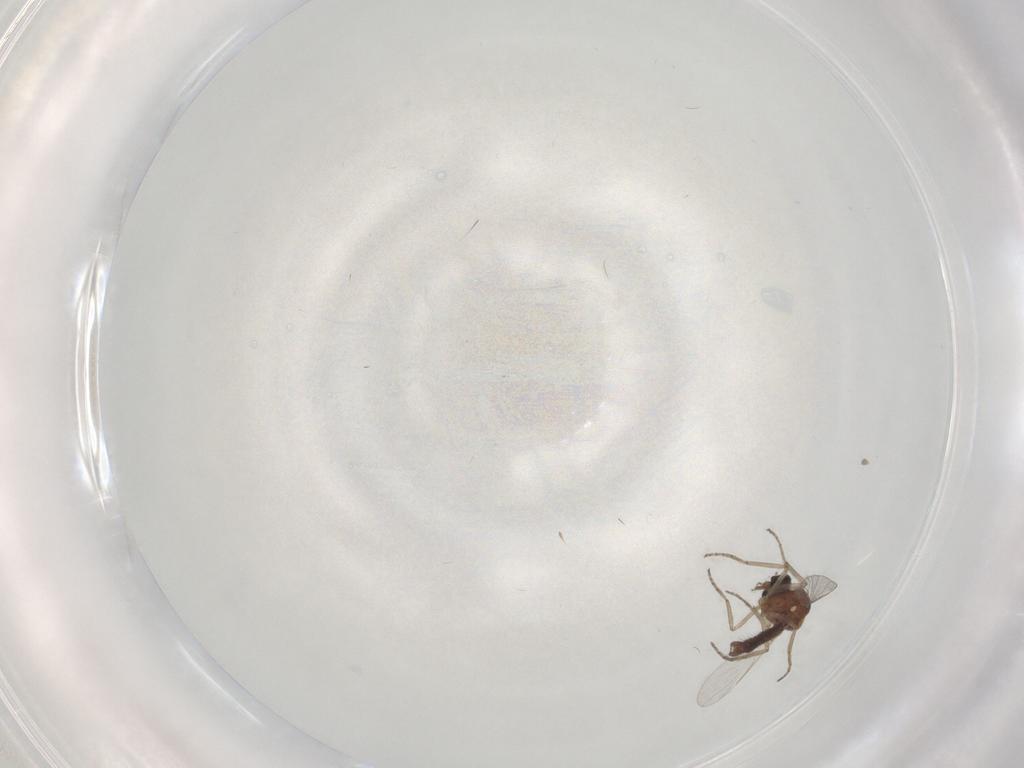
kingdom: Animalia
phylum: Arthropoda
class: Insecta
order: Diptera
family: Ceratopogonidae
